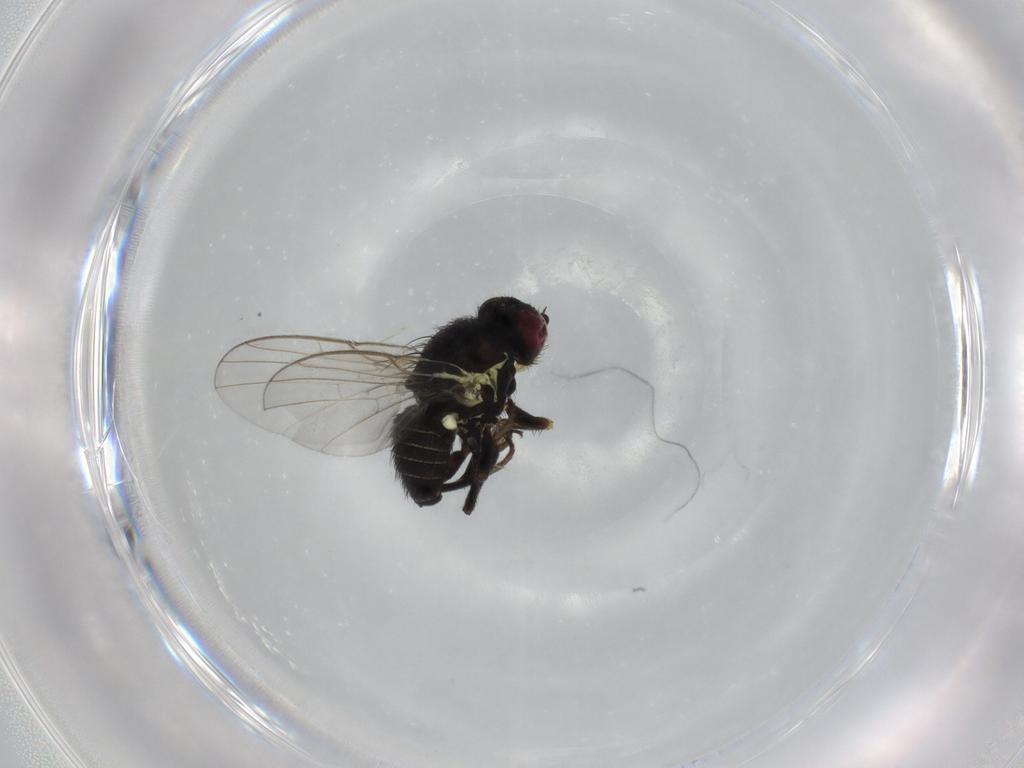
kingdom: Animalia
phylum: Arthropoda
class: Insecta
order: Diptera
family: Agromyzidae
